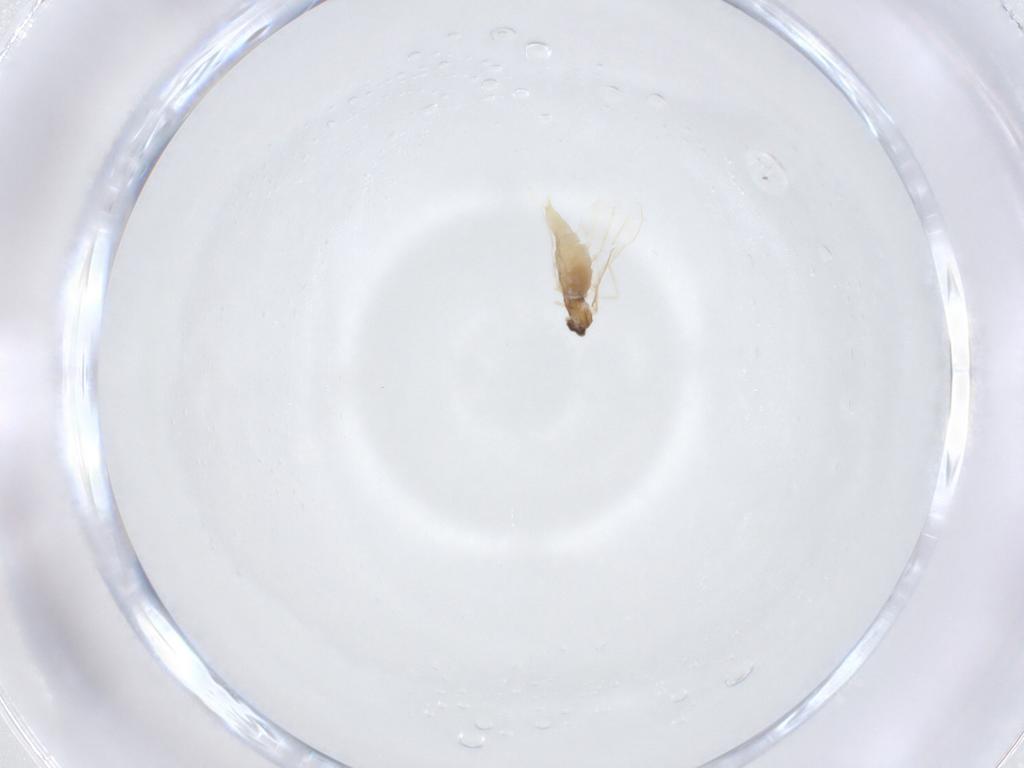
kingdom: Animalia
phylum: Arthropoda
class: Insecta
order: Diptera
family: Cecidomyiidae
